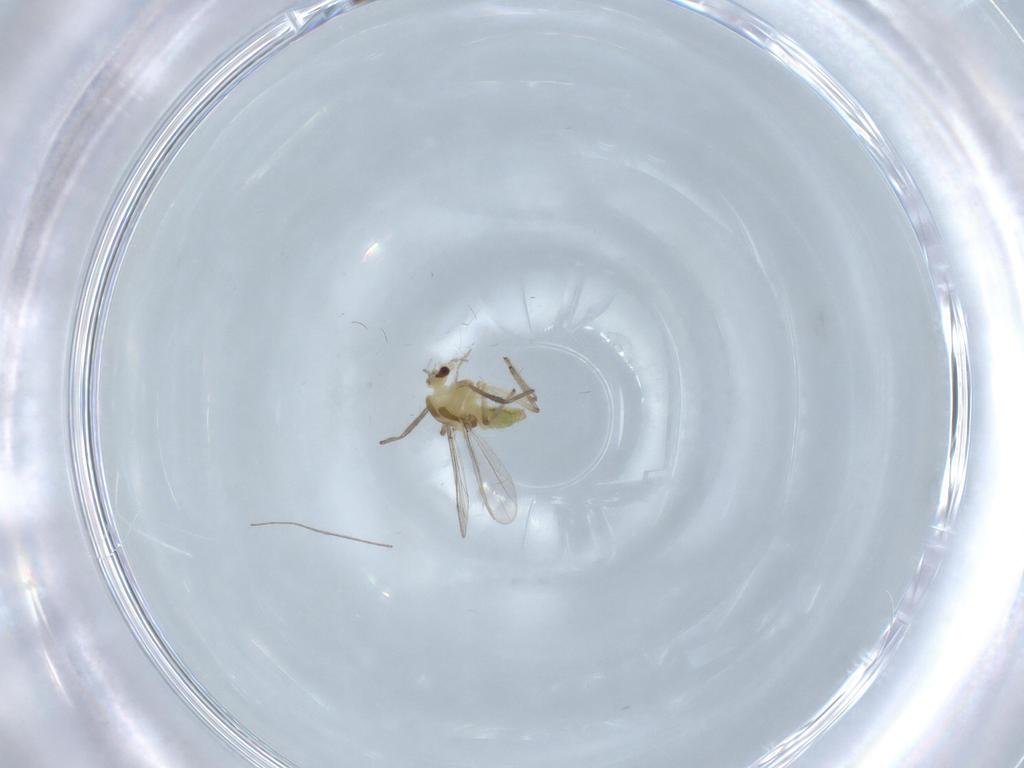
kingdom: Animalia
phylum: Arthropoda
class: Insecta
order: Diptera
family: Chironomidae
